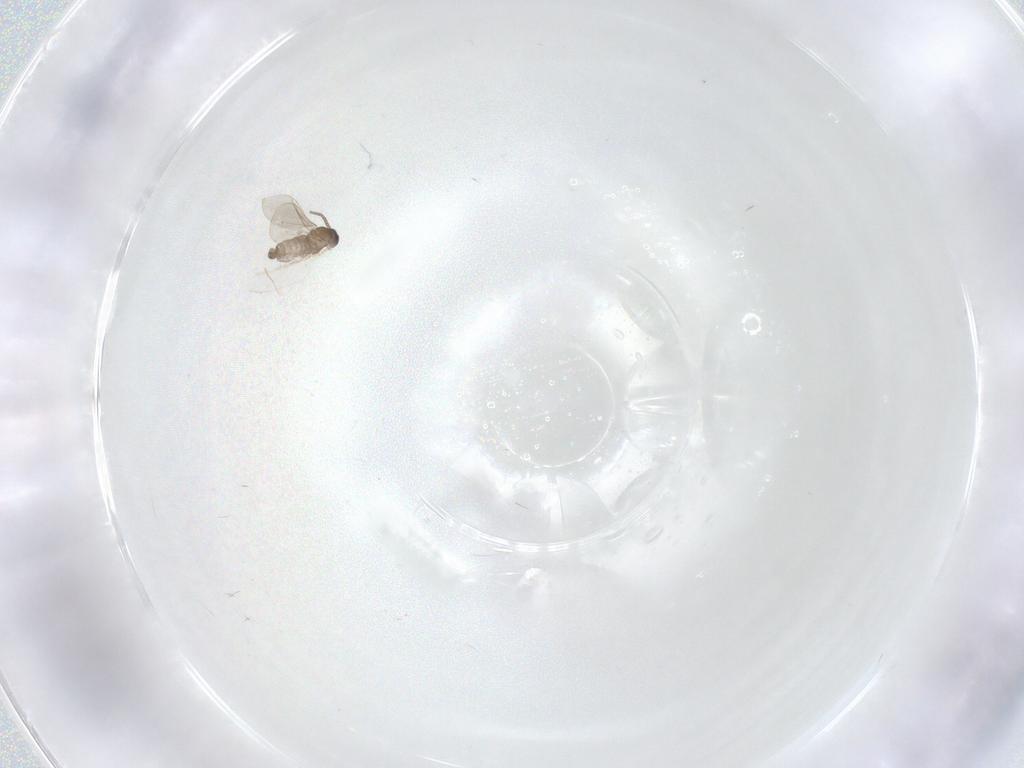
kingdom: Animalia
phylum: Arthropoda
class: Insecta
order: Diptera
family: Cecidomyiidae
